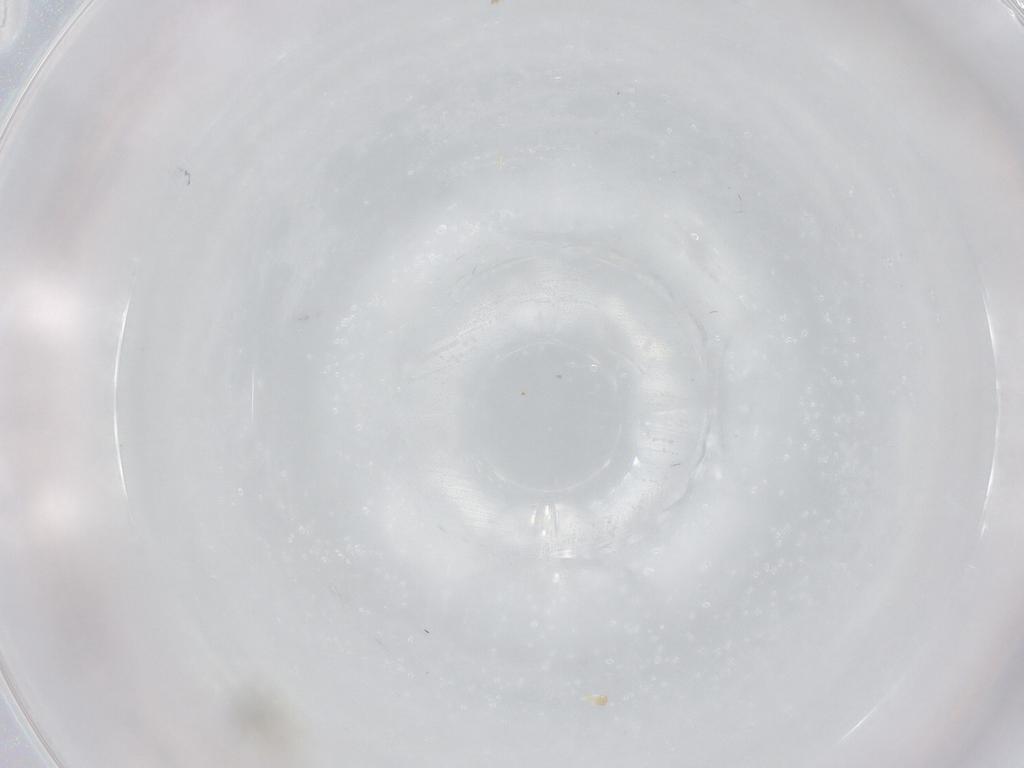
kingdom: Animalia
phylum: Arthropoda
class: Insecta
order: Diptera
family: Cecidomyiidae
